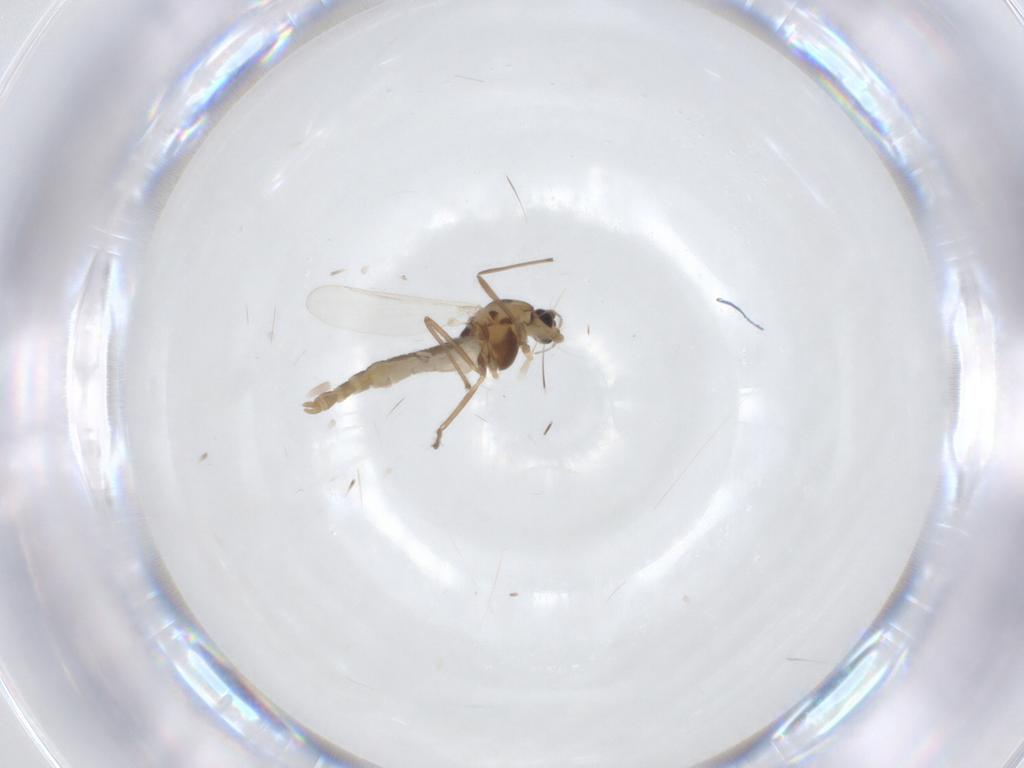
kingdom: Animalia
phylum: Arthropoda
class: Insecta
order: Diptera
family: Chironomidae
